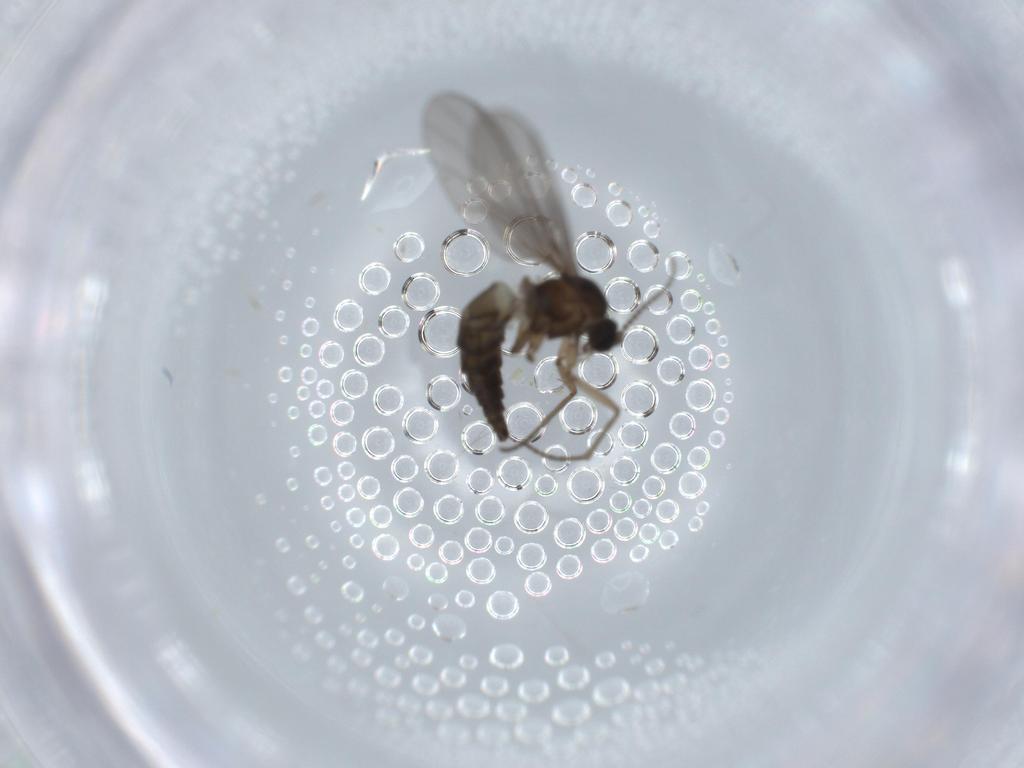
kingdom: Animalia
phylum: Arthropoda
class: Insecta
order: Diptera
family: Sciaridae
